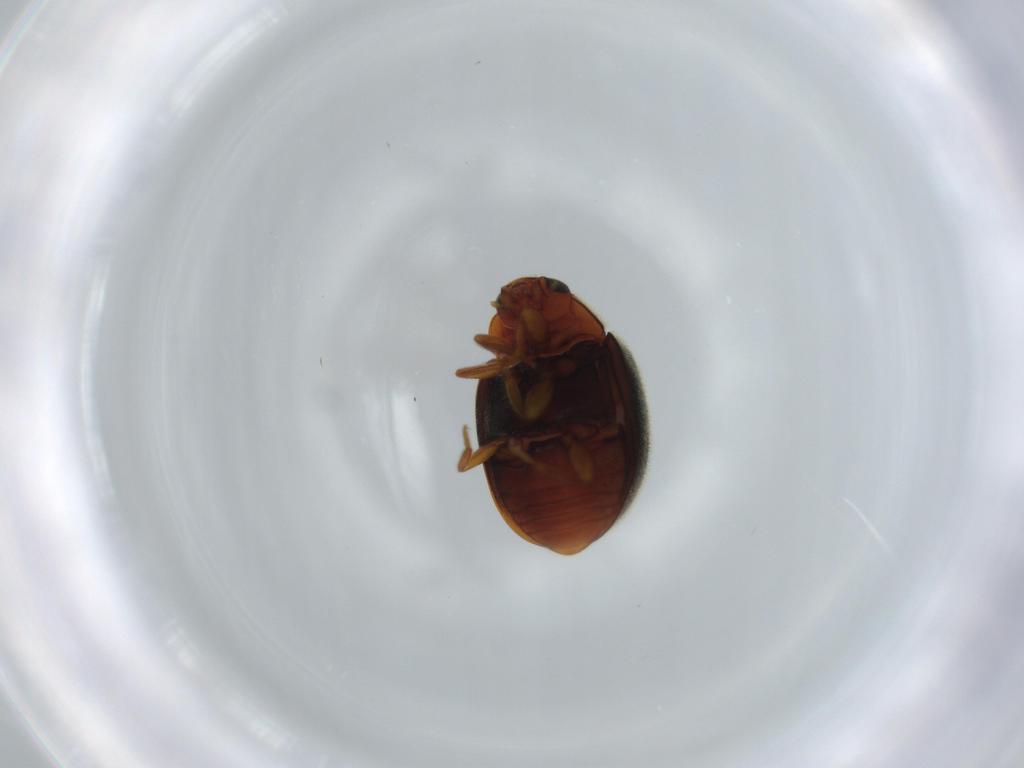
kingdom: Animalia
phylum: Arthropoda
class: Insecta
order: Coleoptera
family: Coccinellidae
